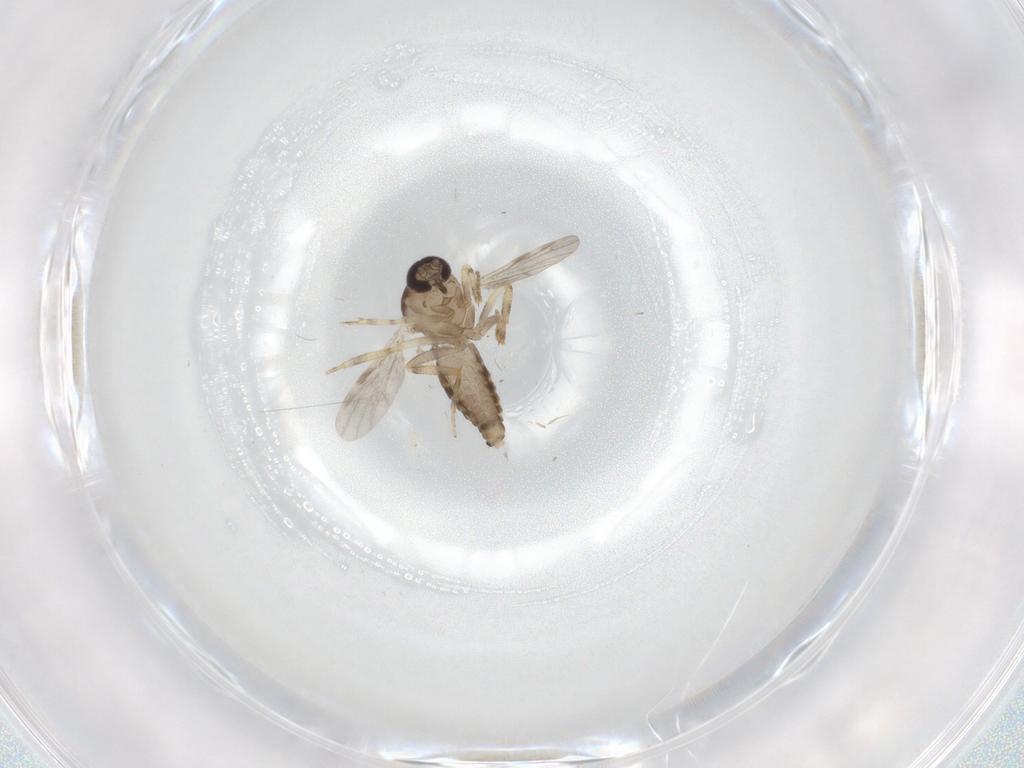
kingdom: Animalia
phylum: Arthropoda
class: Insecta
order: Diptera
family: Ceratopogonidae
